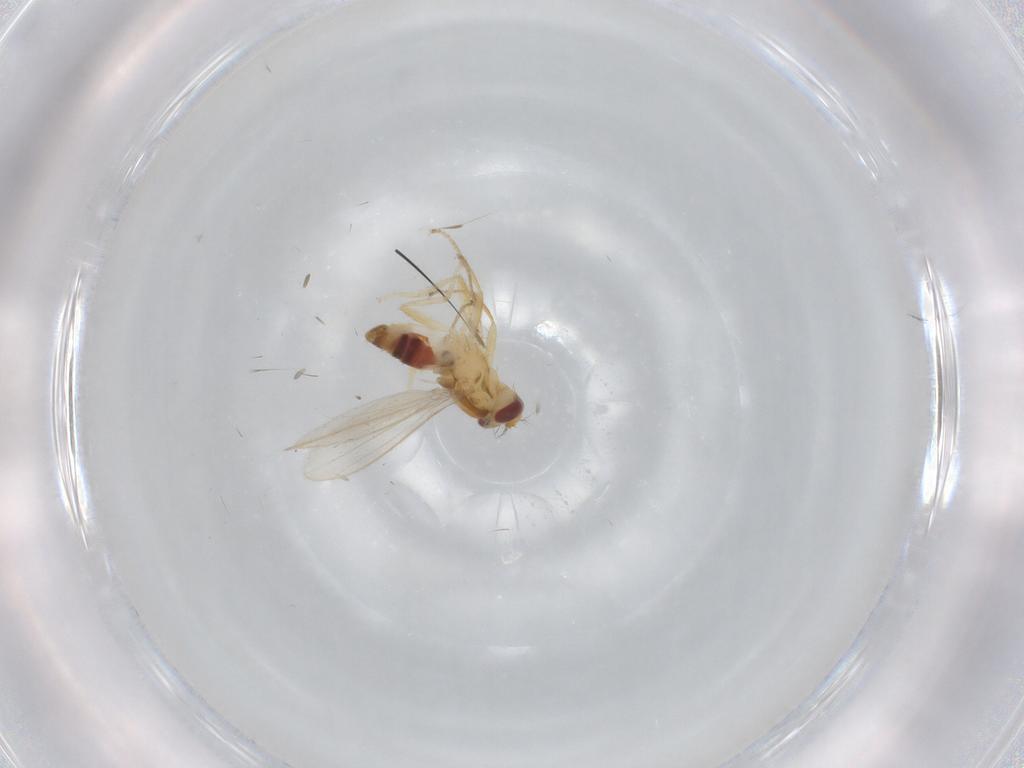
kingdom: Animalia
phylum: Arthropoda
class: Insecta
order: Diptera
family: Periscelididae
